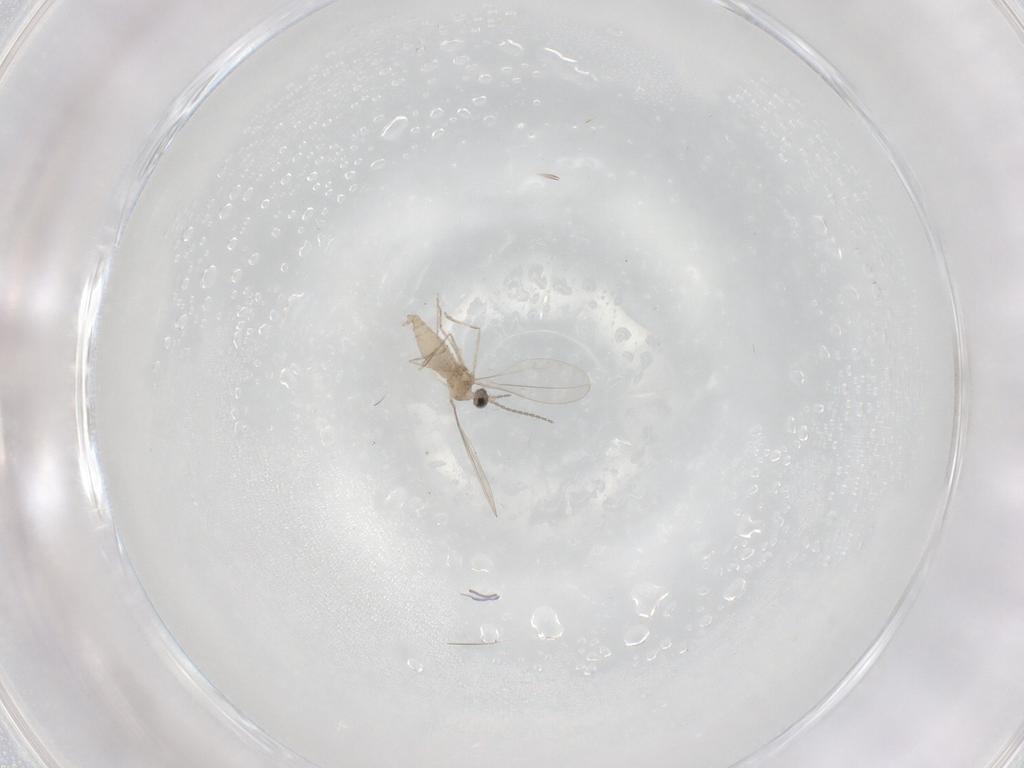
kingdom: Animalia
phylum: Arthropoda
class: Insecta
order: Diptera
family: Cecidomyiidae
